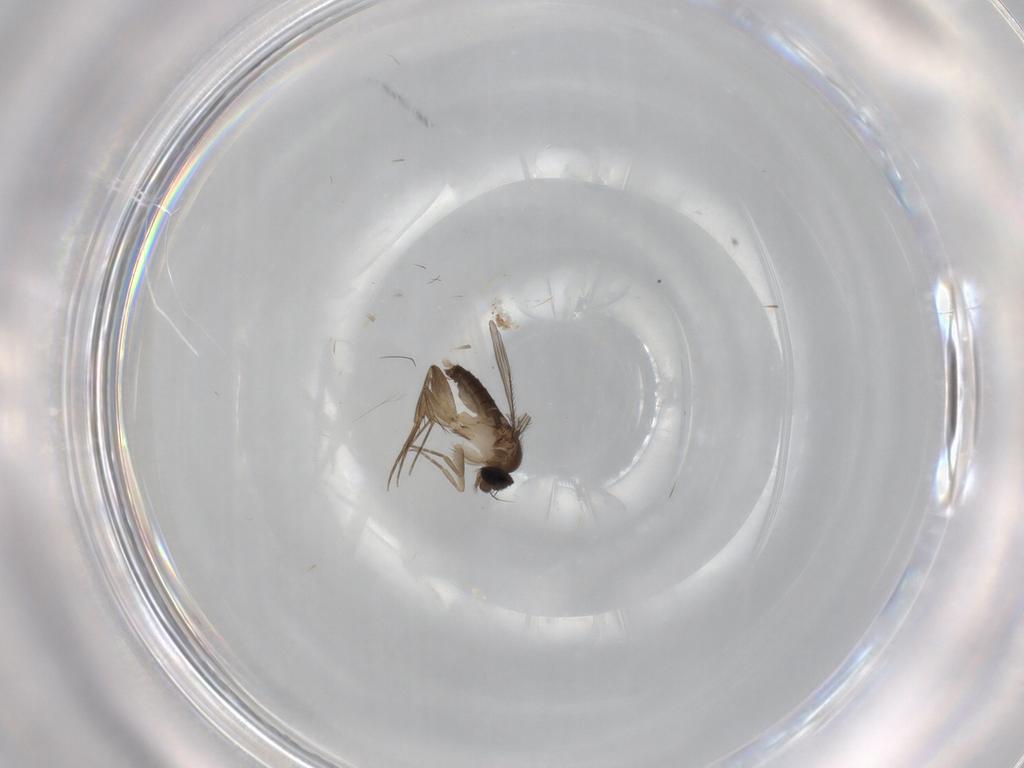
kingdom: Animalia
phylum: Arthropoda
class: Insecta
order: Diptera
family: Phoridae
